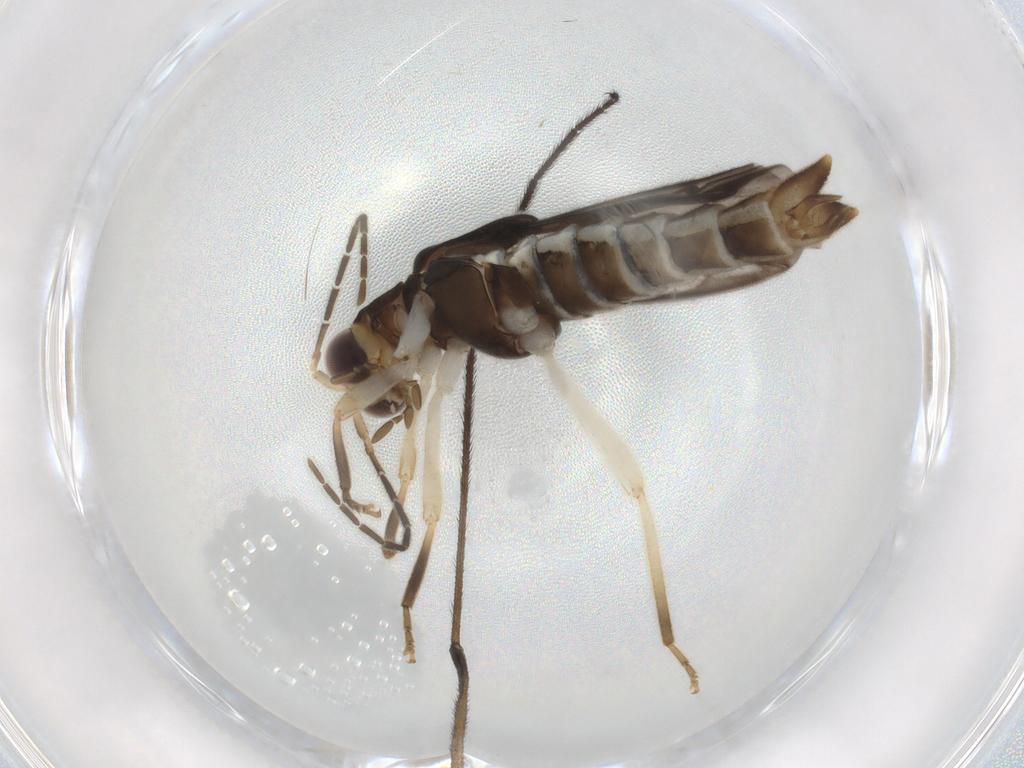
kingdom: Animalia
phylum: Arthropoda
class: Insecta
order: Coleoptera
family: Cantharidae
